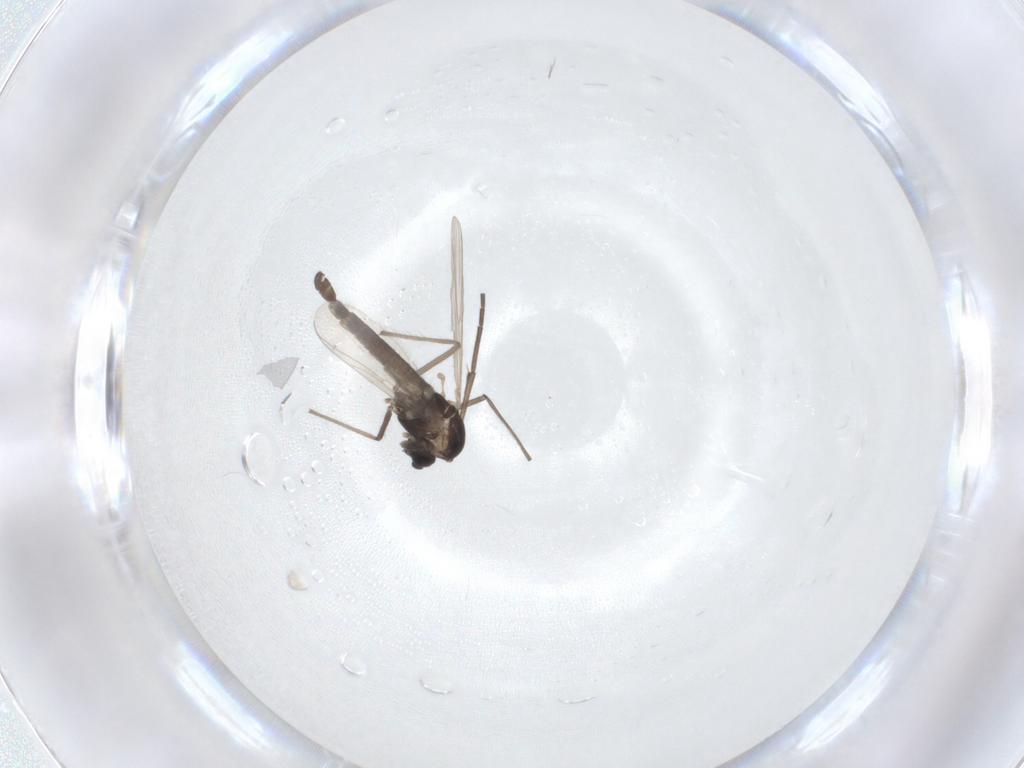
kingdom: Animalia
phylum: Arthropoda
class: Insecta
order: Diptera
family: Chironomidae
